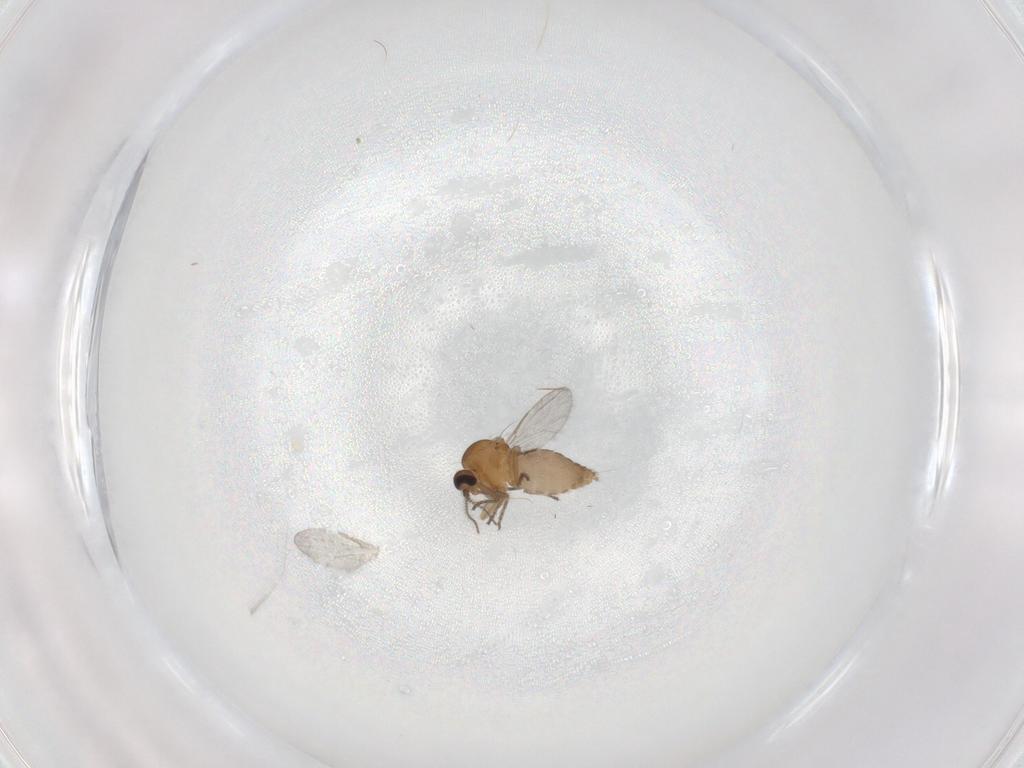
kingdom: Animalia
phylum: Arthropoda
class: Insecta
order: Diptera
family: Ceratopogonidae
